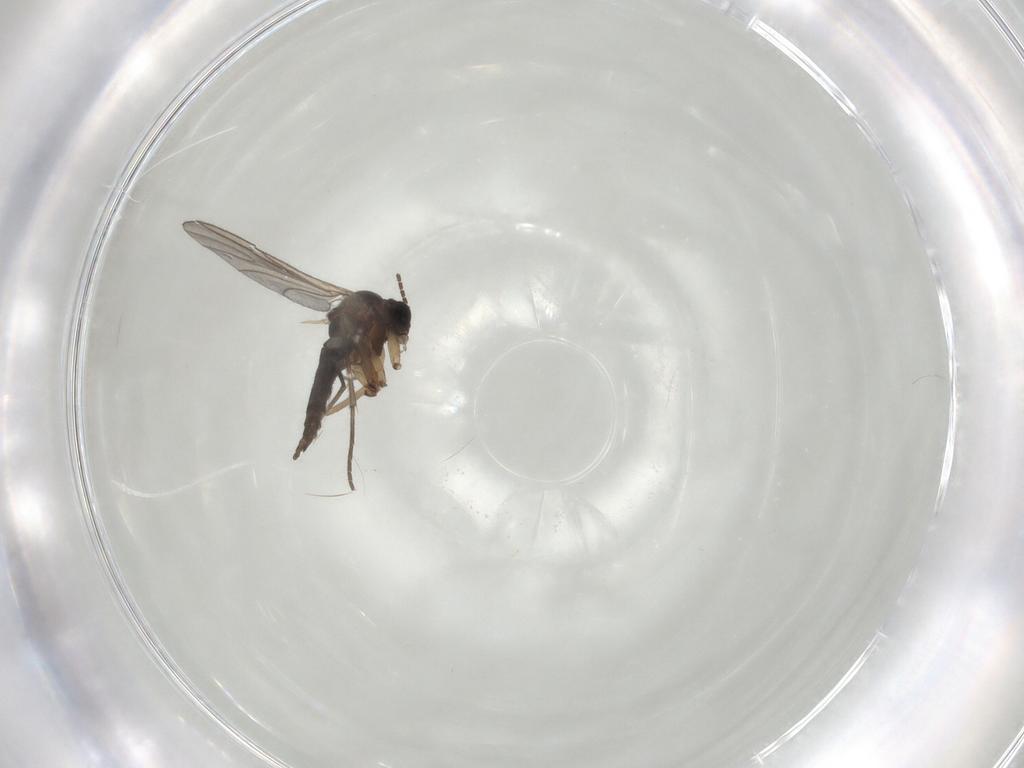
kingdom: Animalia
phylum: Arthropoda
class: Insecta
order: Diptera
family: Sciaridae
